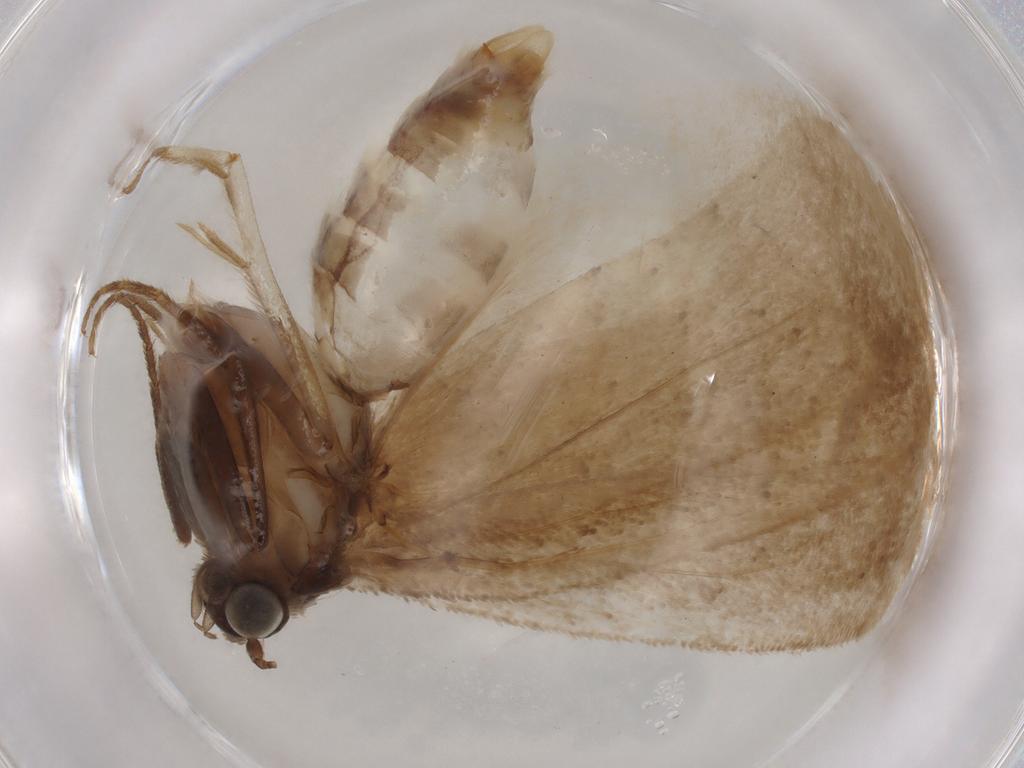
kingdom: Animalia
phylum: Arthropoda
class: Insecta
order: Lepidoptera
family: Tortricidae
